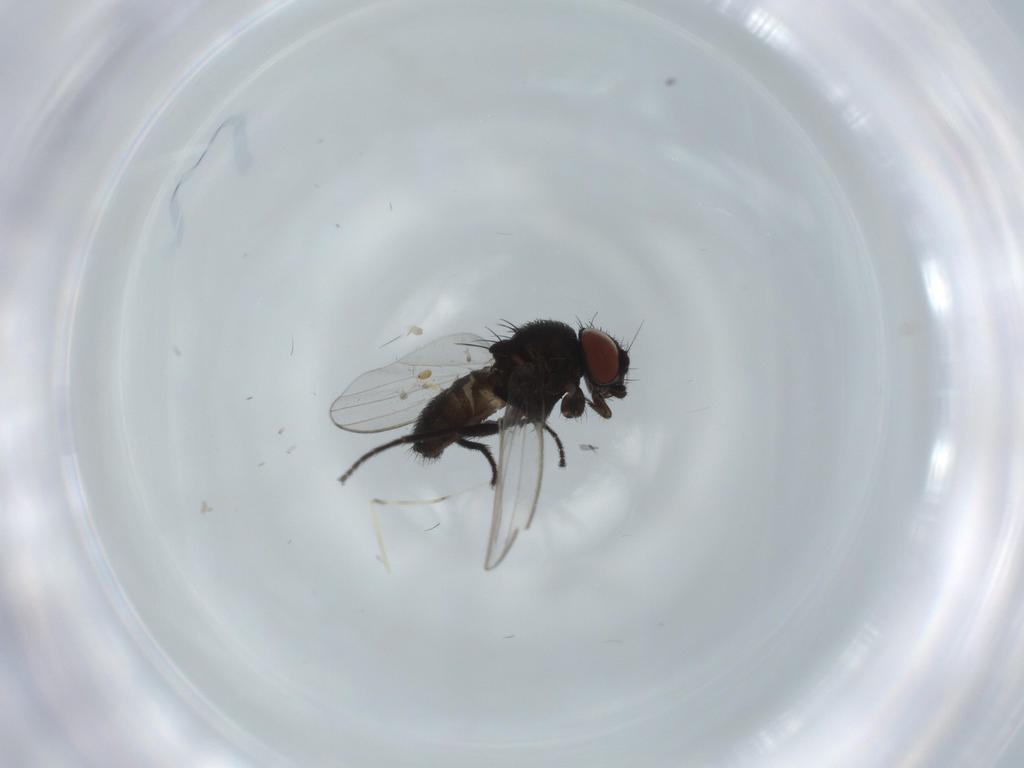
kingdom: Animalia
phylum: Arthropoda
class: Insecta
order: Diptera
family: Milichiidae
